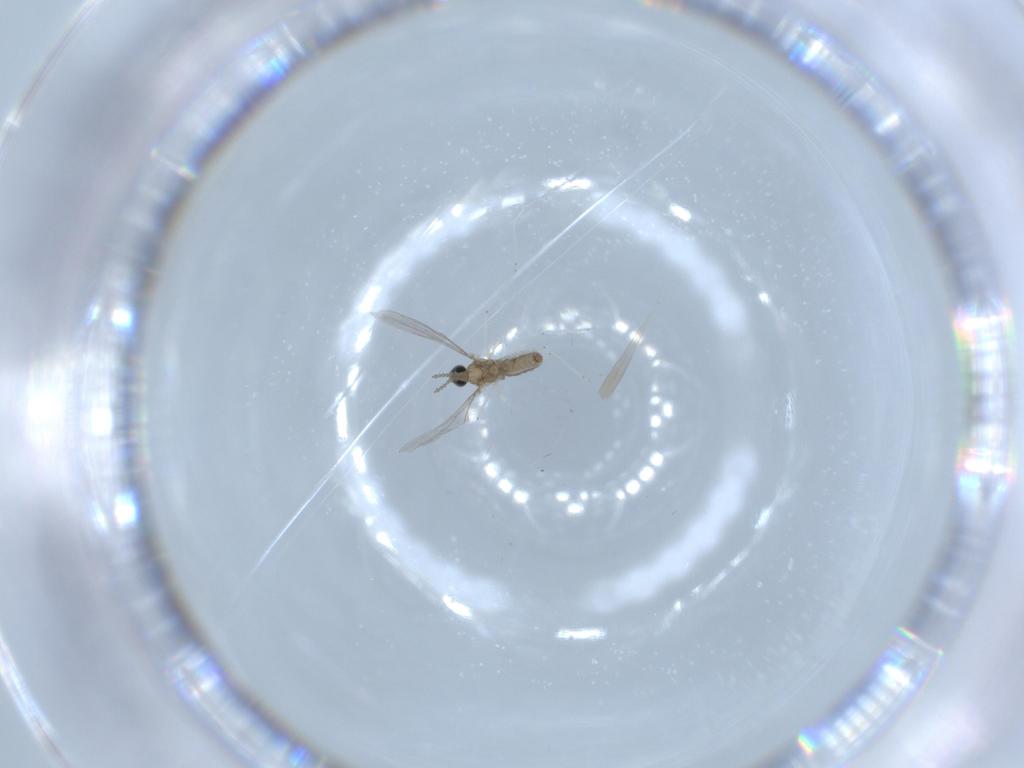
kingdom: Animalia
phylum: Arthropoda
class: Insecta
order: Diptera
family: Cecidomyiidae
